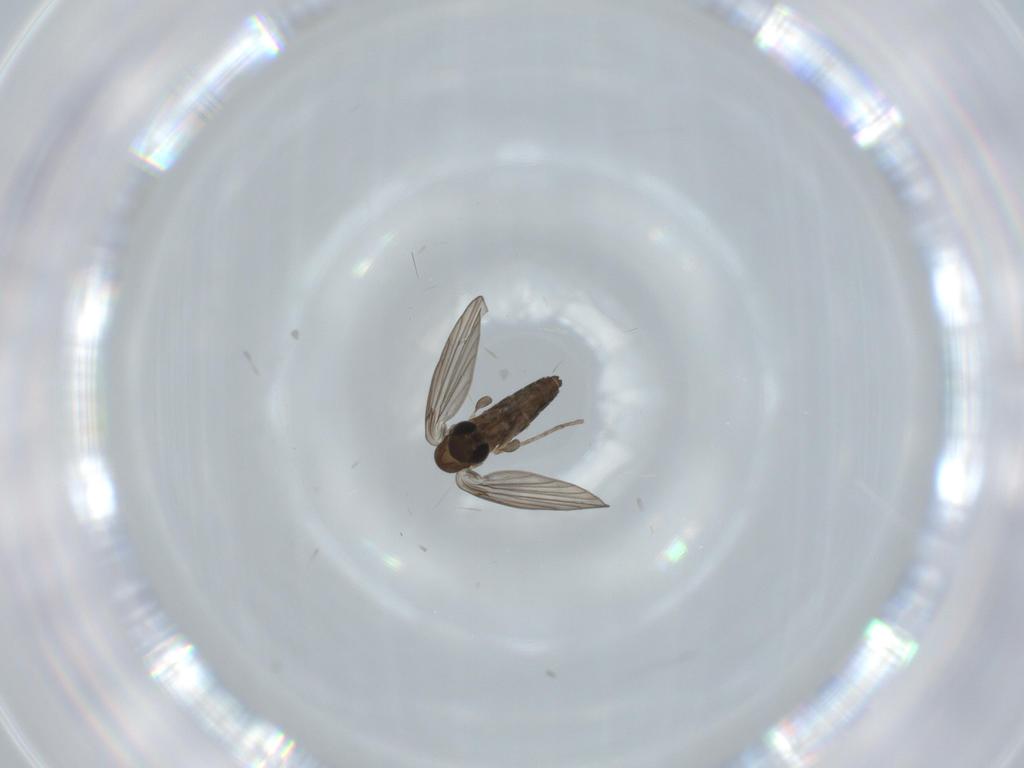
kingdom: Animalia
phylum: Arthropoda
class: Insecta
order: Diptera
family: Psychodidae
